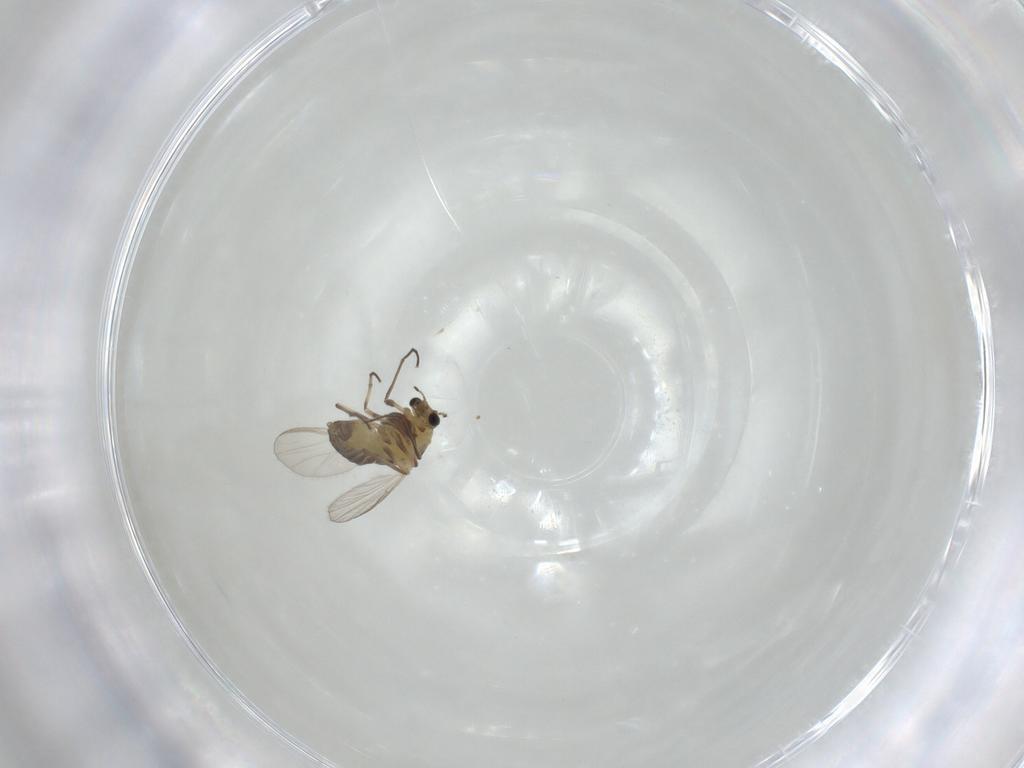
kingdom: Animalia
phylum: Arthropoda
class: Insecta
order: Diptera
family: Chironomidae
